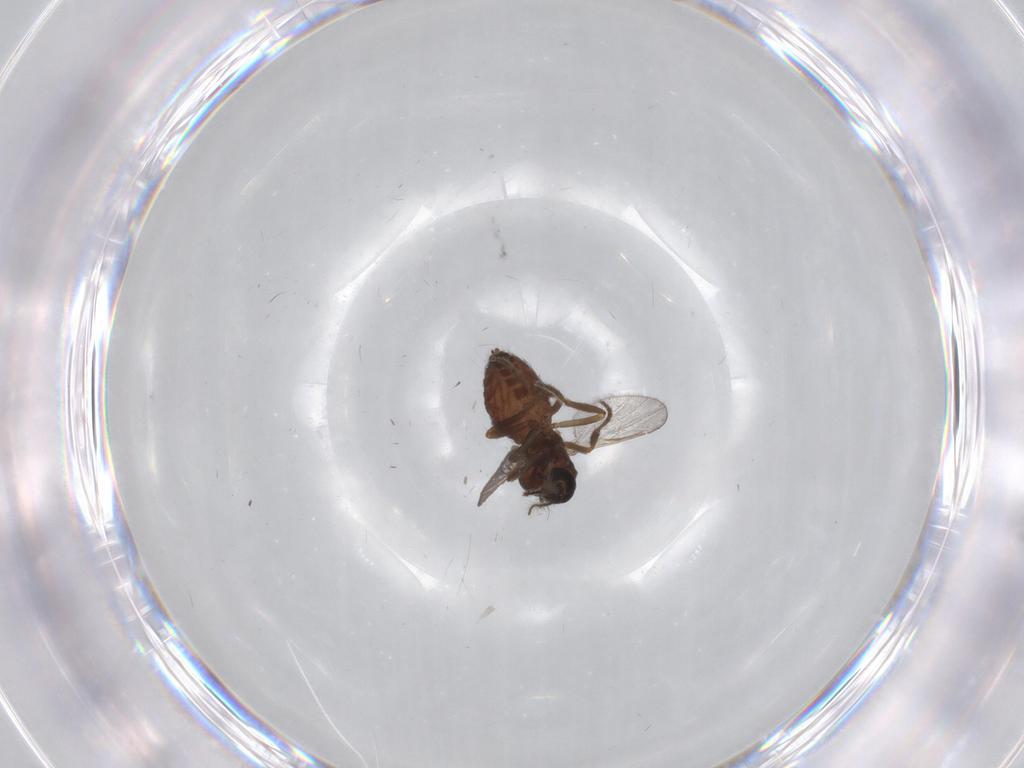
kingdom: Animalia
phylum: Arthropoda
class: Insecta
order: Diptera
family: Ceratopogonidae
